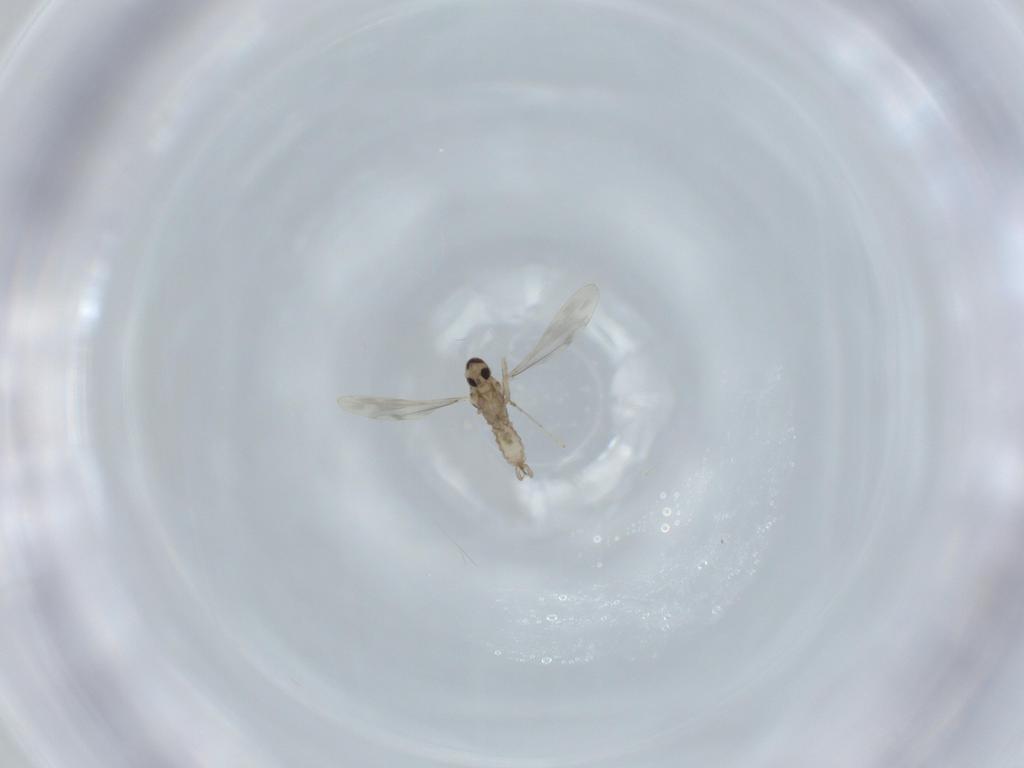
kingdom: Animalia
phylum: Arthropoda
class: Insecta
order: Diptera
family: Cecidomyiidae
